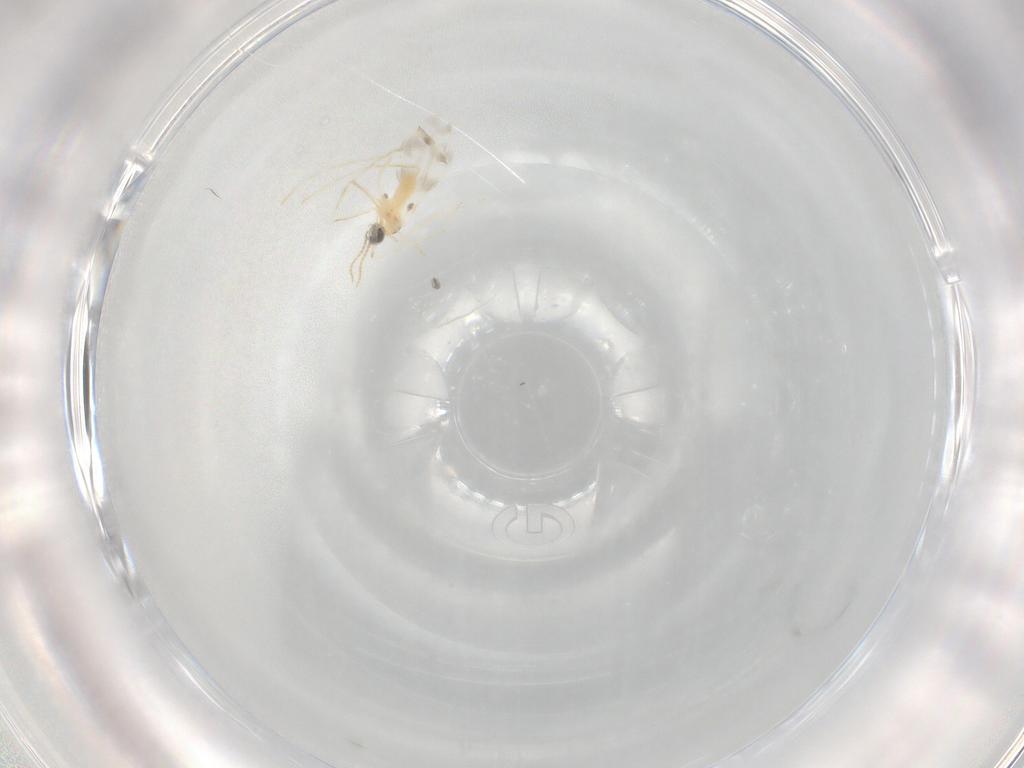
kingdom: Animalia
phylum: Arthropoda
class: Insecta
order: Diptera
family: Cecidomyiidae
